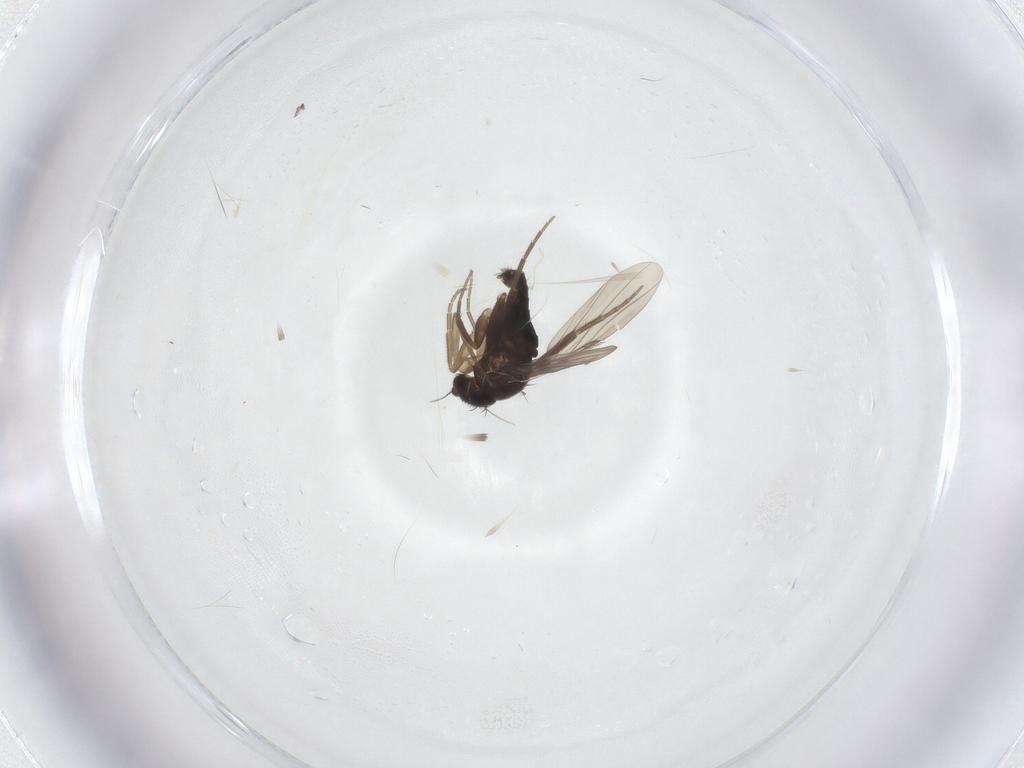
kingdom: Animalia
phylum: Arthropoda
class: Insecta
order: Diptera
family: Phoridae
